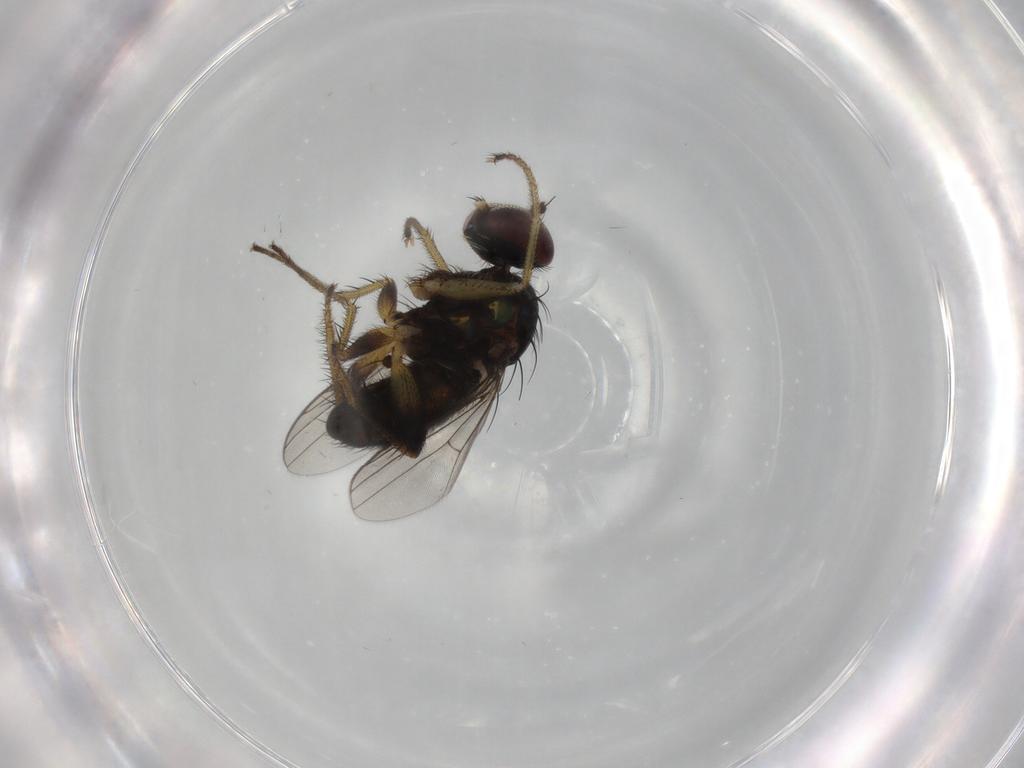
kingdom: Animalia
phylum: Arthropoda
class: Insecta
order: Diptera
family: Dolichopodidae
